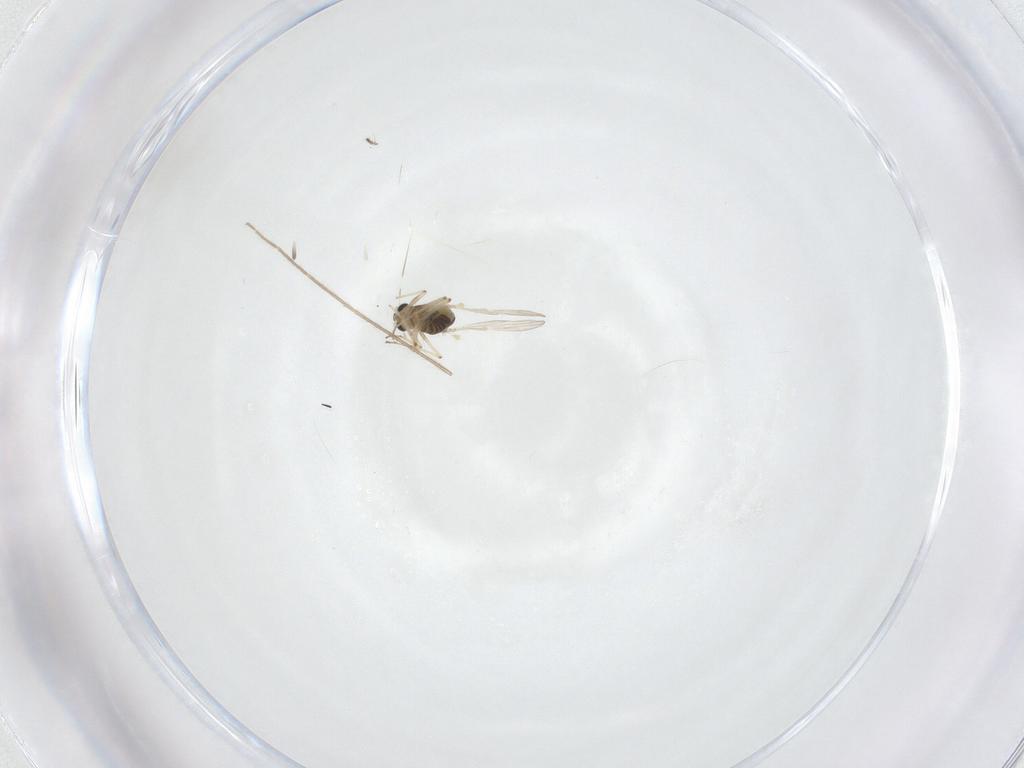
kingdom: Animalia
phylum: Arthropoda
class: Insecta
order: Diptera
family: Chironomidae
